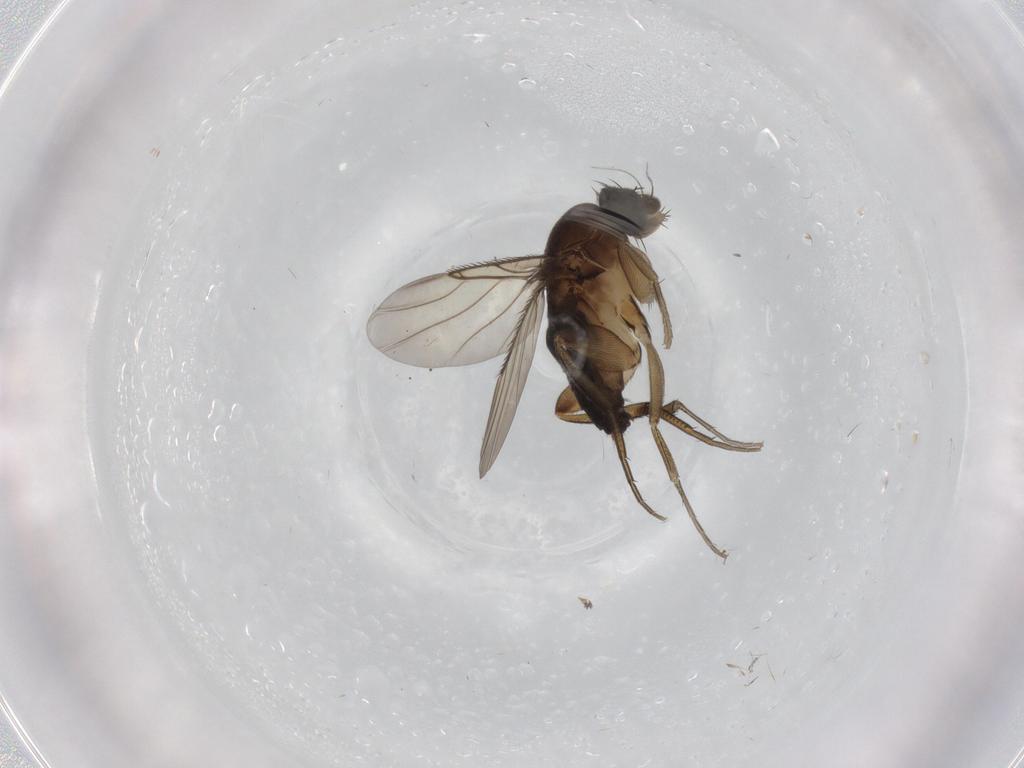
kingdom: Animalia
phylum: Arthropoda
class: Insecta
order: Diptera
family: Phoridae
